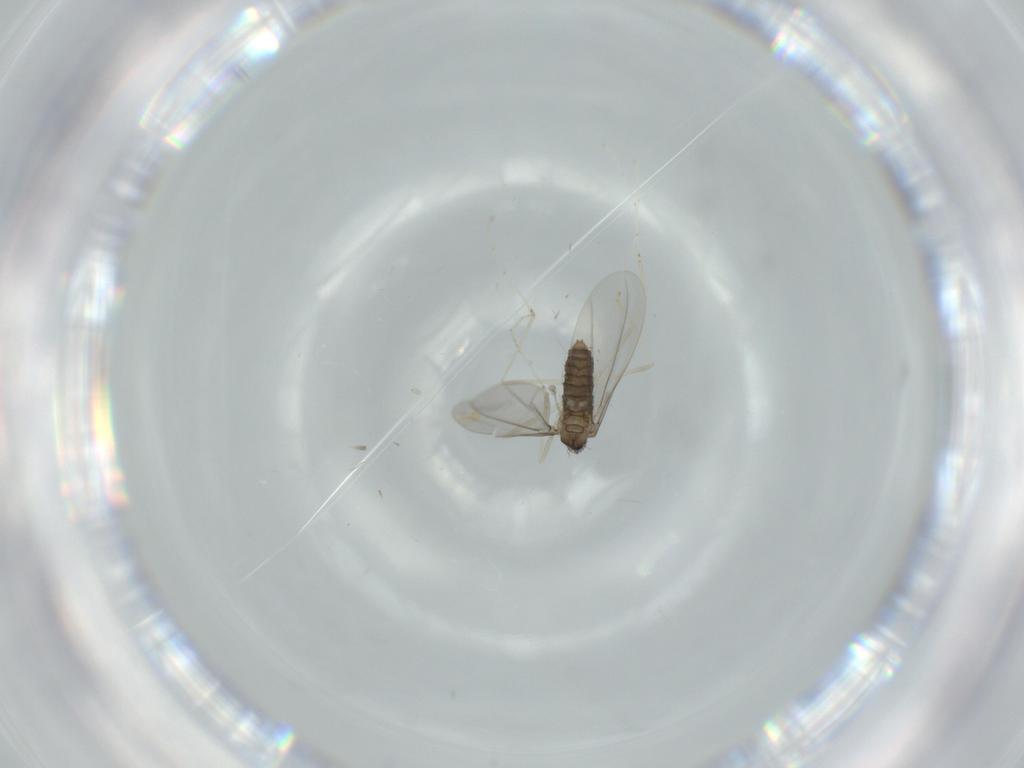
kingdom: Animalia
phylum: Arthropoda
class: Insecta
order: Diptera
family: Cecidomyiidae
